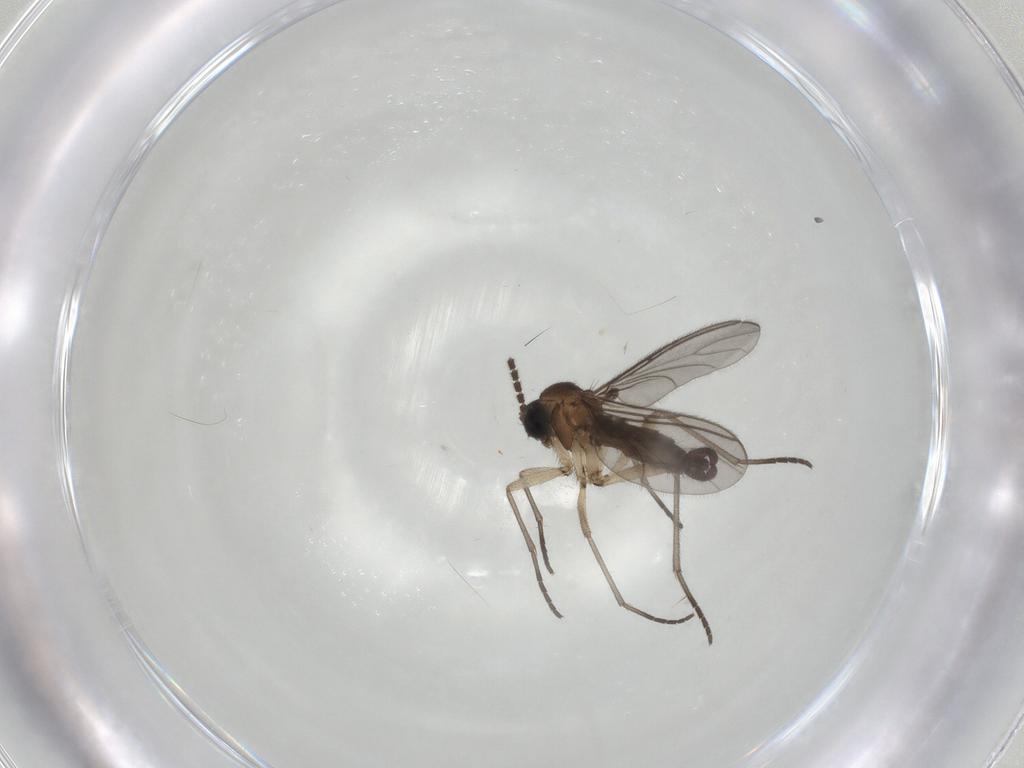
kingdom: Animalia
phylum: Arthropoda
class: Insecta
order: Diptera
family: Sciaridae
